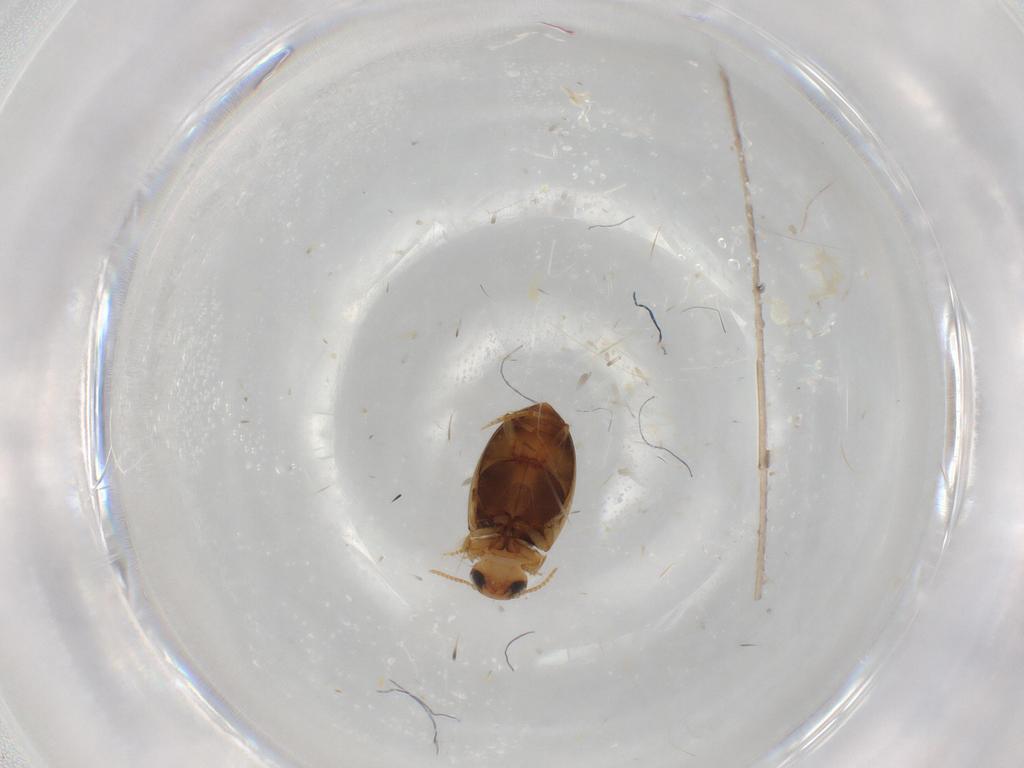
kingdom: Animalia
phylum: Arthropoda
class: Insecta
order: Coleoptera
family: Dytiscidae
